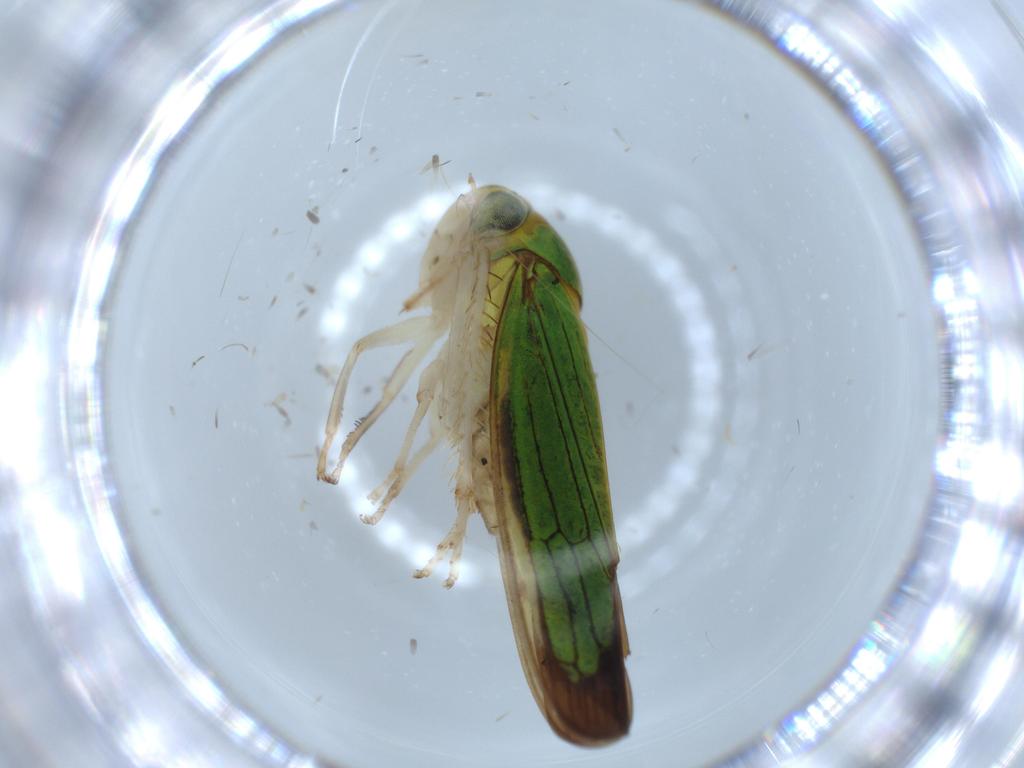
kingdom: Animalia
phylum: Arthropoda
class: Insecta
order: Hemiptera
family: Cicadellidae
